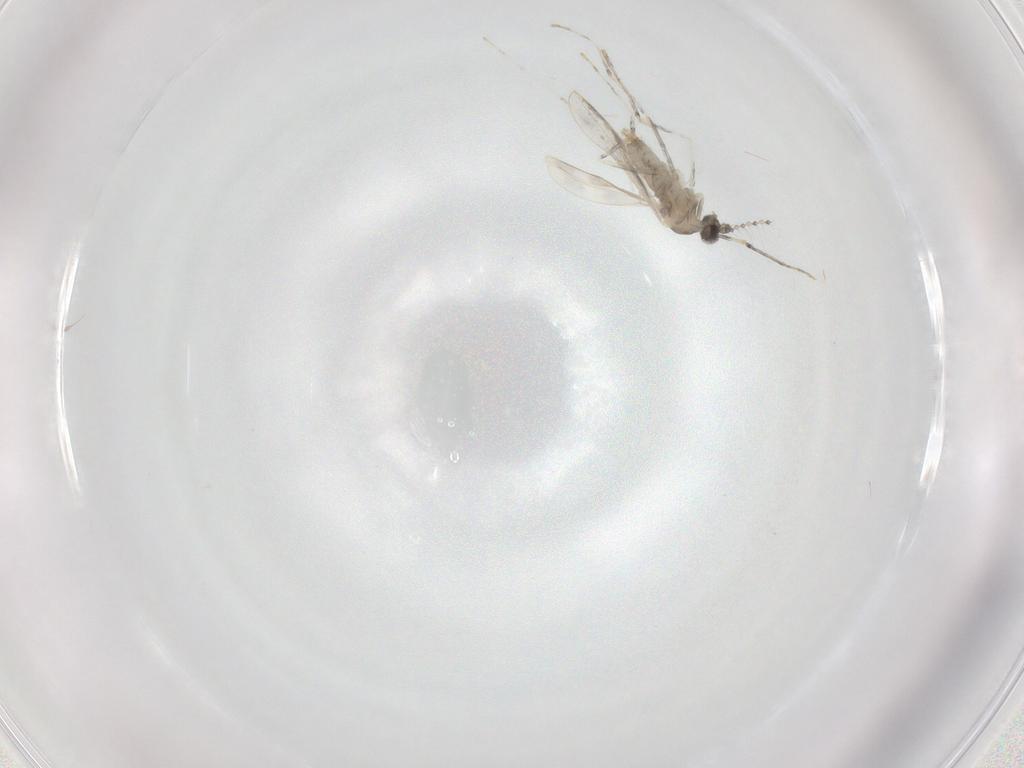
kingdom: Animalia
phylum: Arthropoda
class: Insecta
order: Diptera
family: Cecidomyiidae
